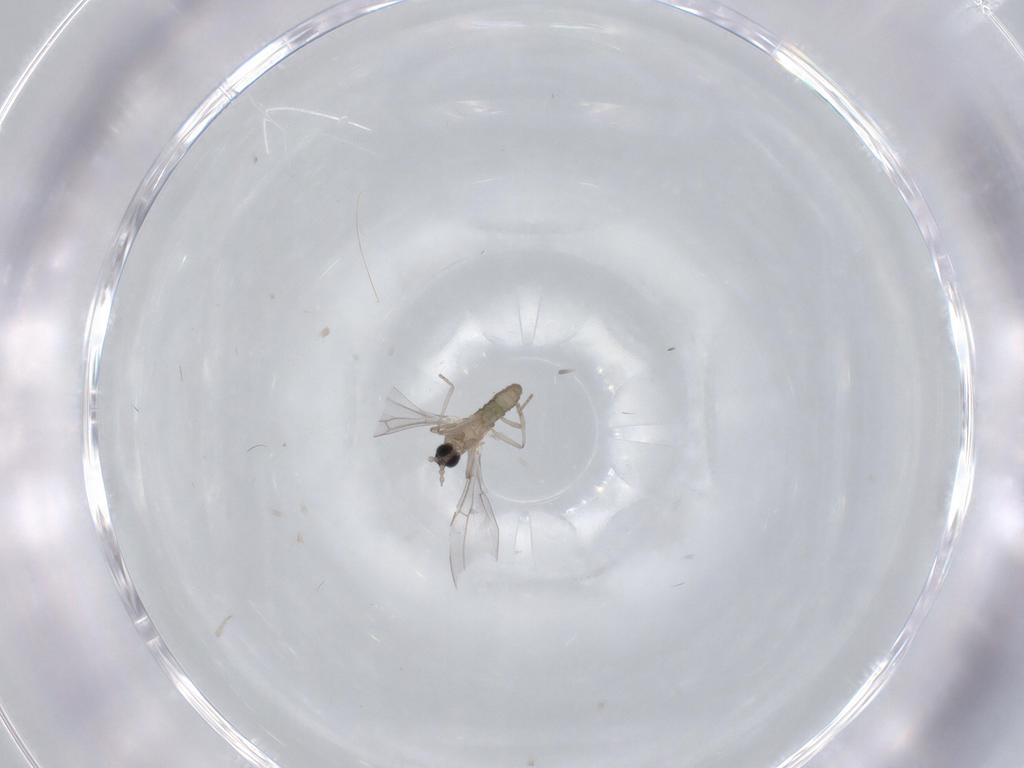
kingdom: Animalia
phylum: Arthropoda
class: Insecta
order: Diptera
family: Cecidomyiidae
